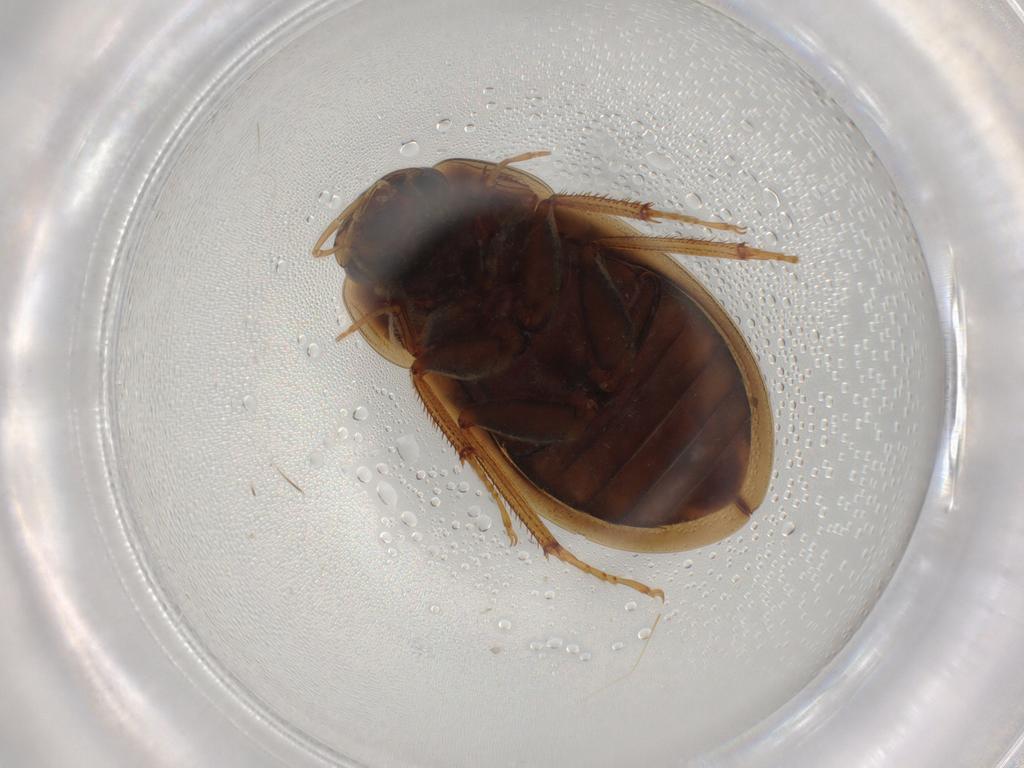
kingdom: Animalia
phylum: Arthropoda
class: Insecta
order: Coleoptera
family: Hydrophilidae
